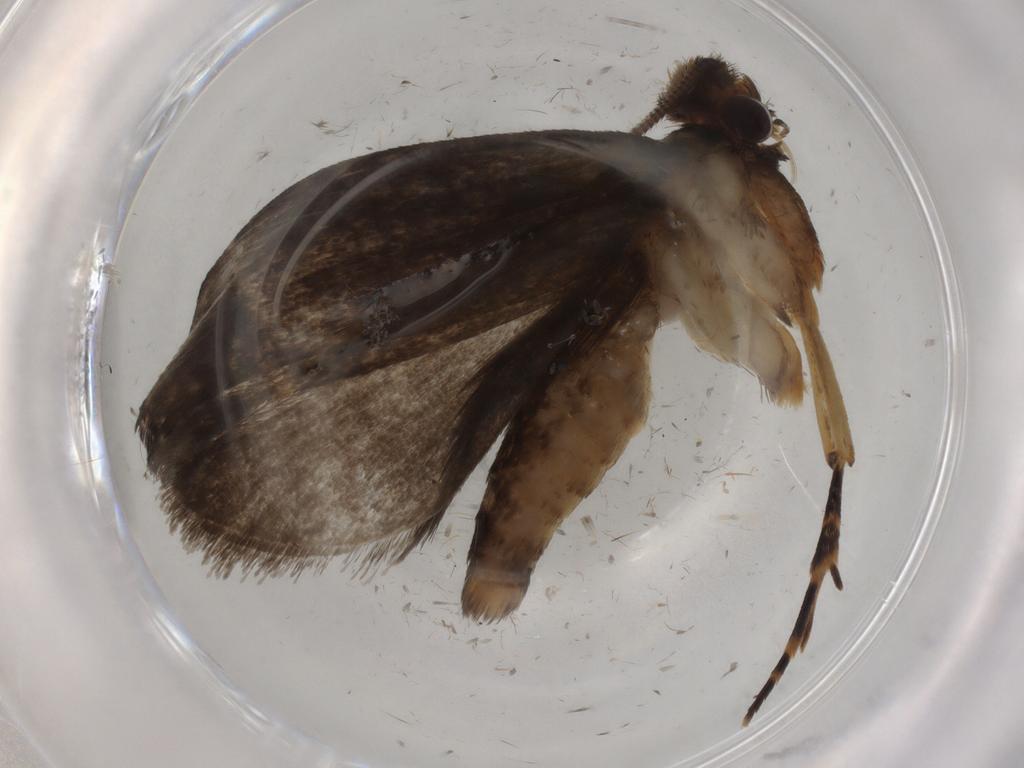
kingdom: Animalia
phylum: Arthropoda
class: Insecta
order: Lepidoptera
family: Tineidae
